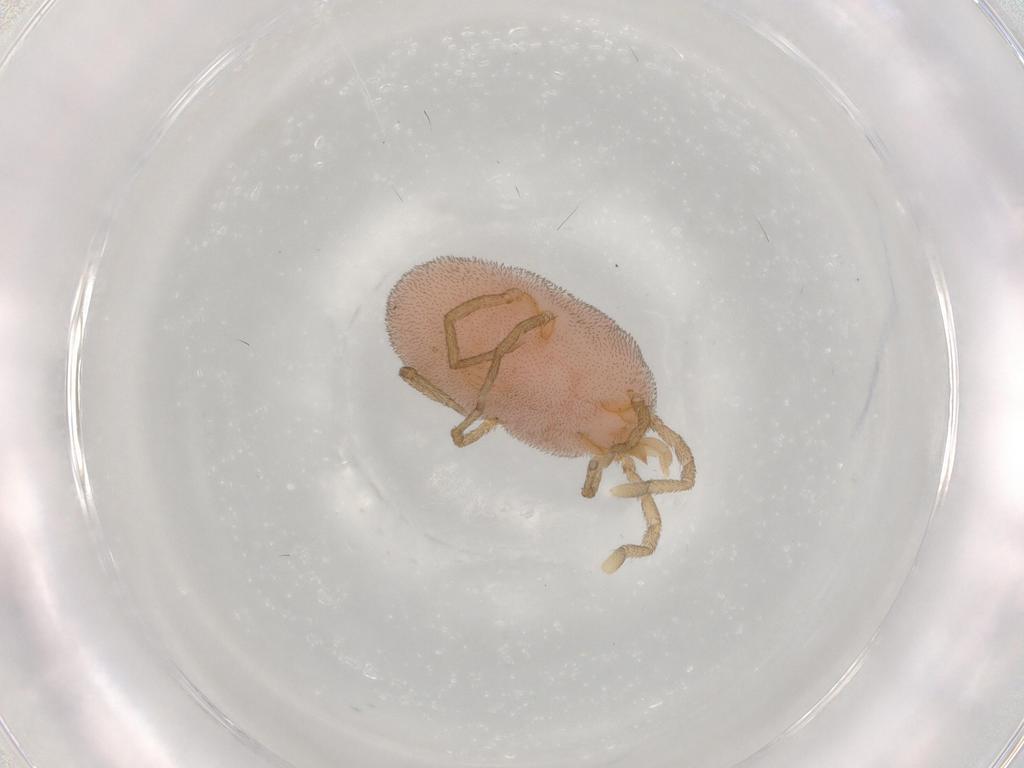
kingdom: Animalia
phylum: Arthropoda
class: Arachnida
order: Trombidiformes
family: Erythraeidae
